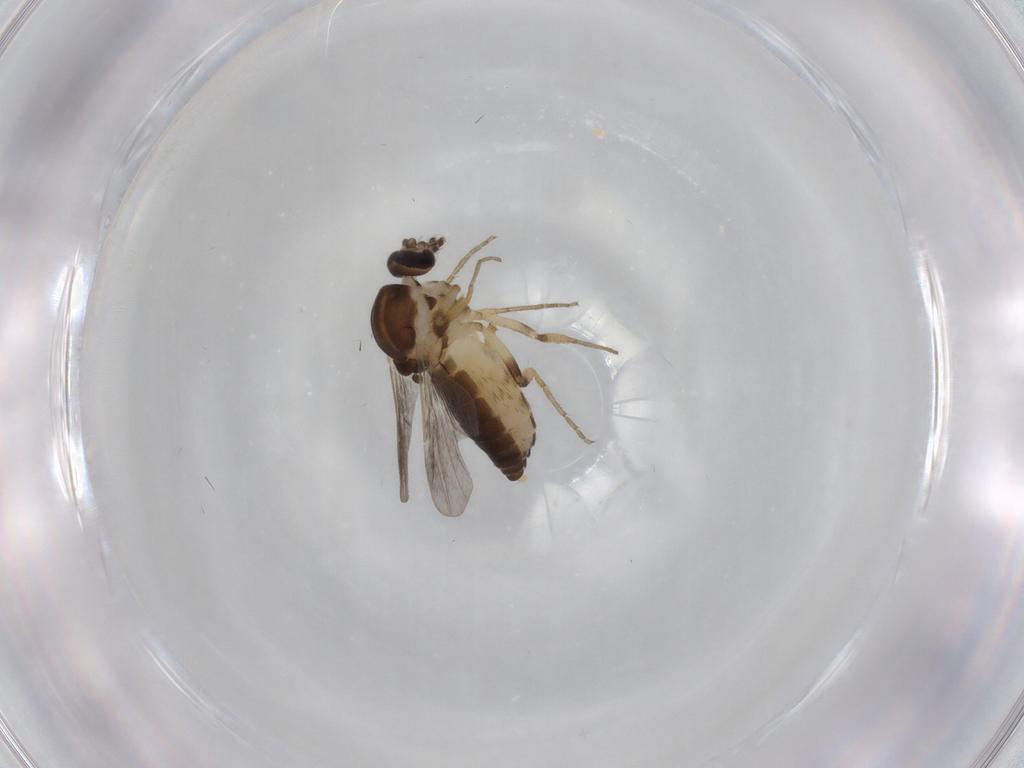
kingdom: Animalia
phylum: Arthropoda
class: Insecta
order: Diptera
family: Ceratopogonidae
